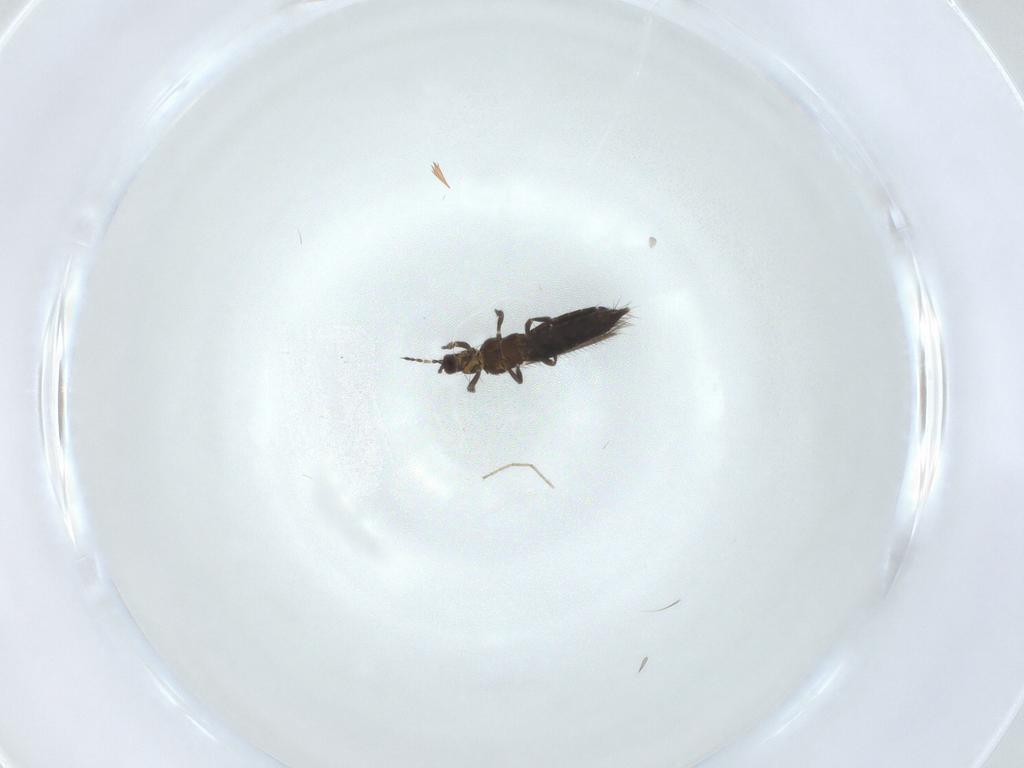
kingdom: Animalia
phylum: Arthropoda
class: Insecta
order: Thysanoptera
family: Thripidae
